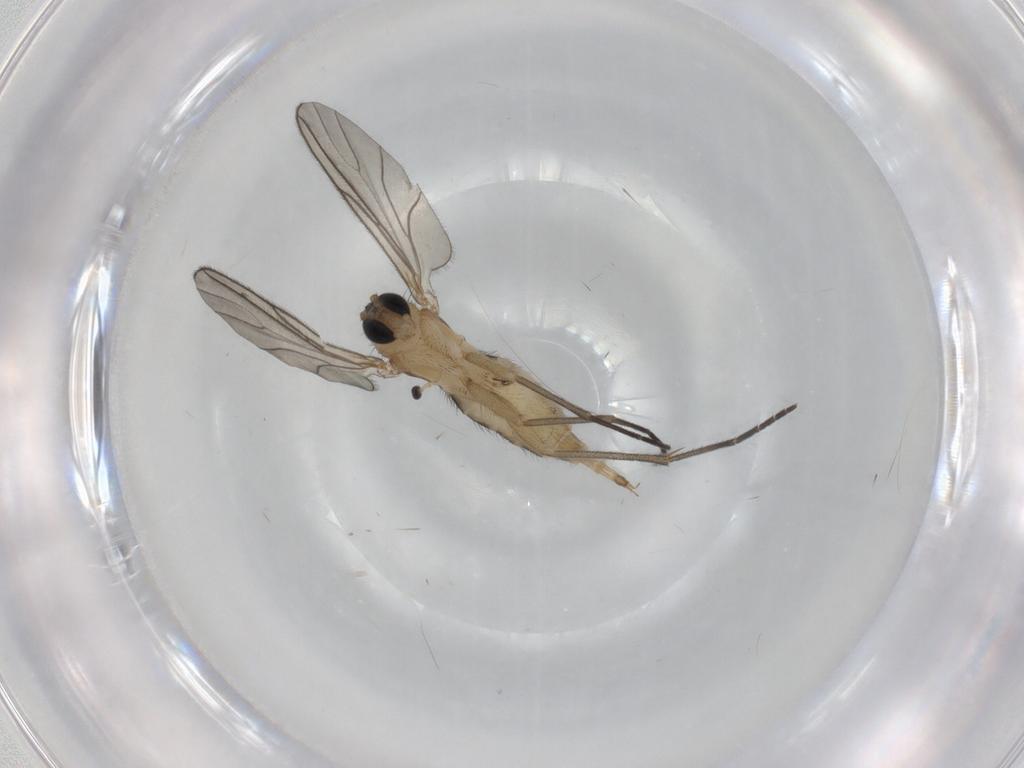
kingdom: Animalia
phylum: Arthropoda
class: Insecta
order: Diptera
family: Sciaridae
